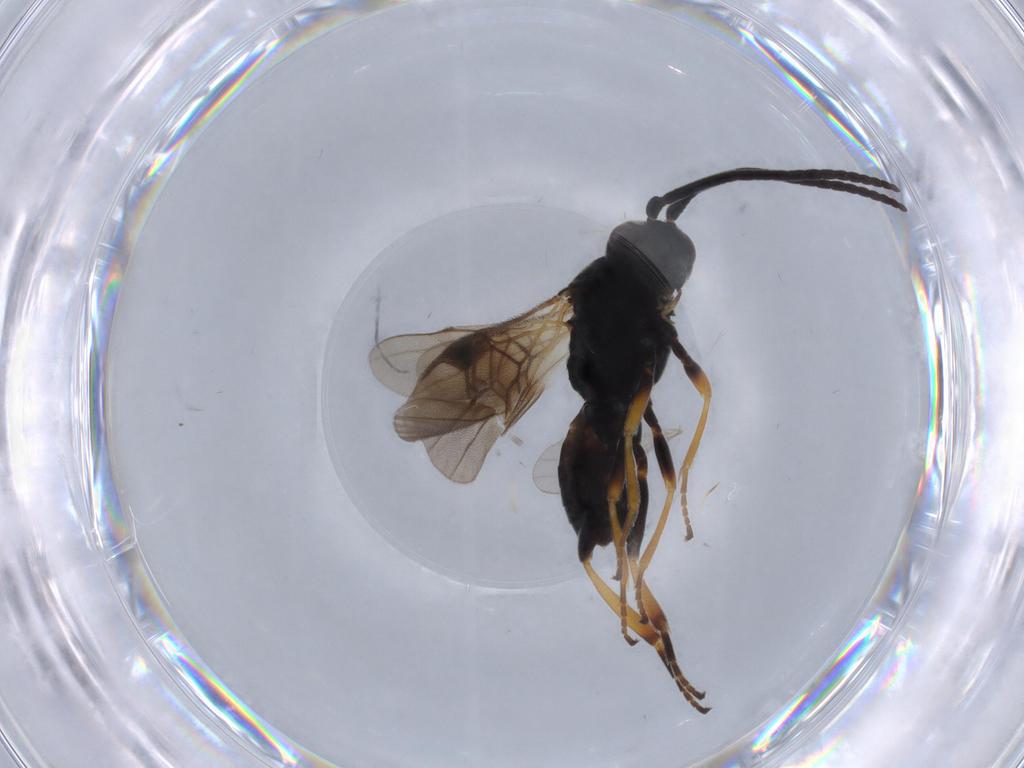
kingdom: Animalia
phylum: Arthropoda
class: Insecta
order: Hymenoptera
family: Braconidae
